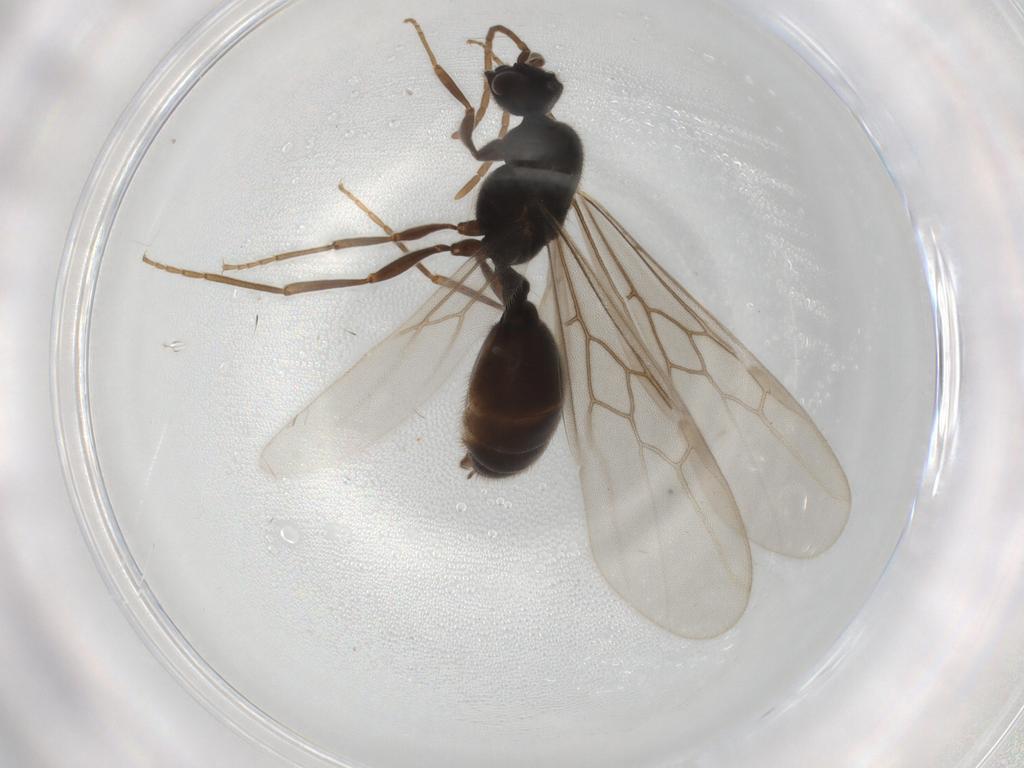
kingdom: Animalia
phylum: Arthropoda
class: Insecta
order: Hymenoptera
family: Formicidae
